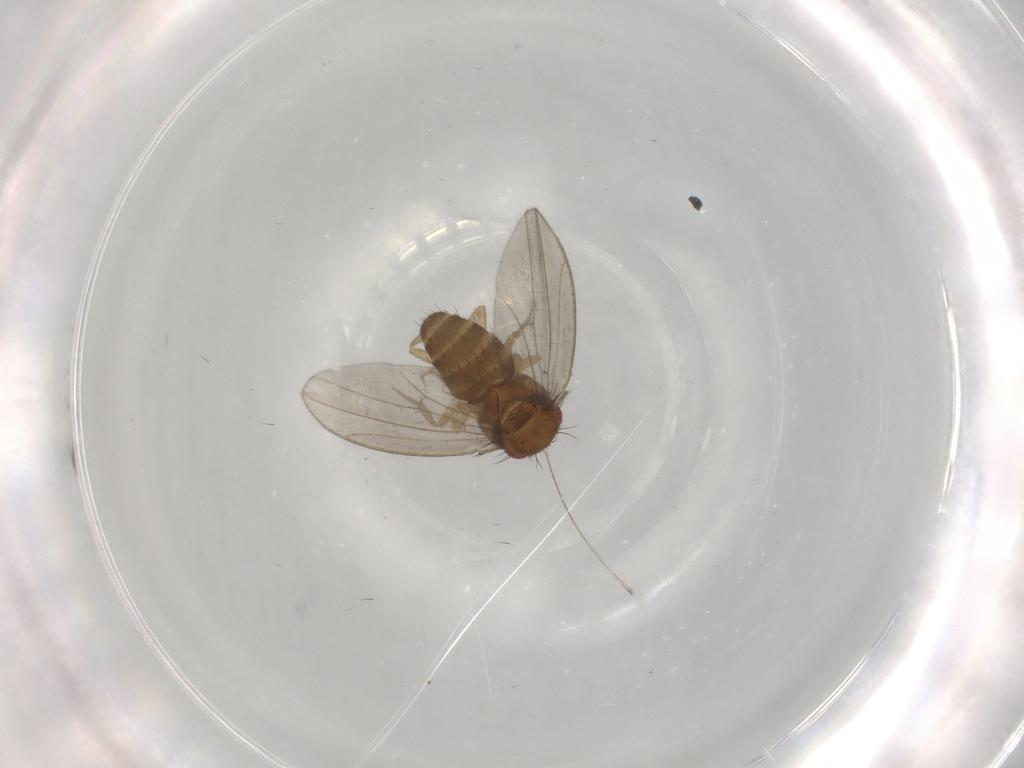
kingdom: Animalia
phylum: Arthropoda
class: Insecta
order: Diptera
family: Drosophilidae
